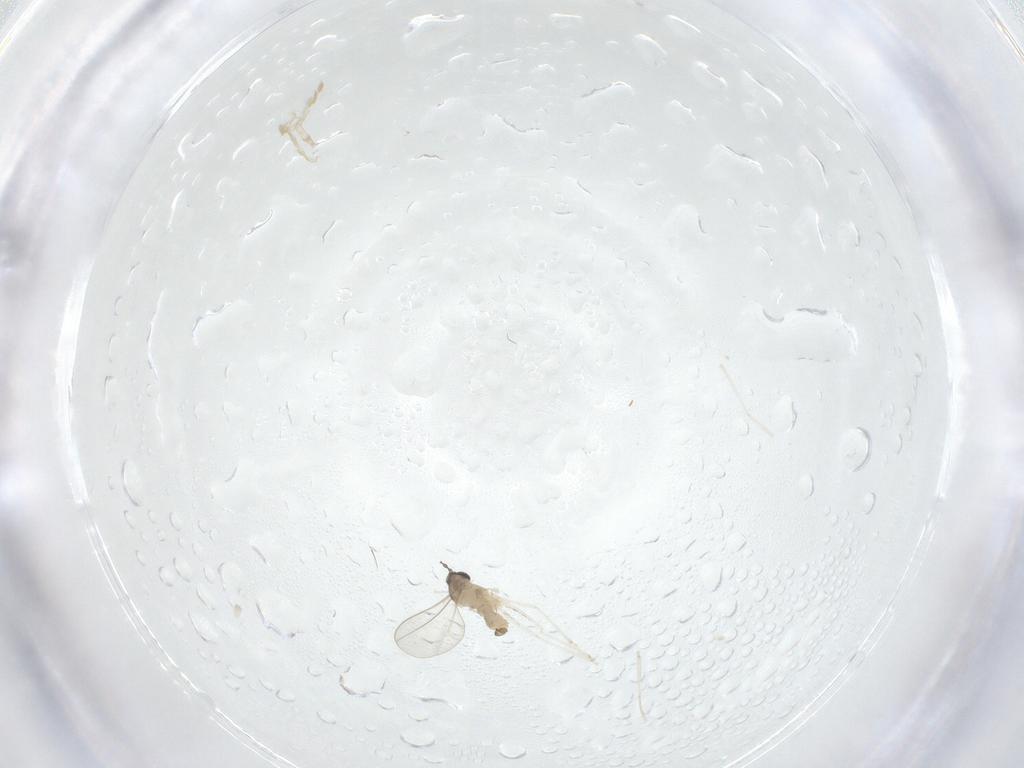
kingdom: Animalia
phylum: Arthropoda
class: Insecta
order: Diptera
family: Cecidomyiidae
